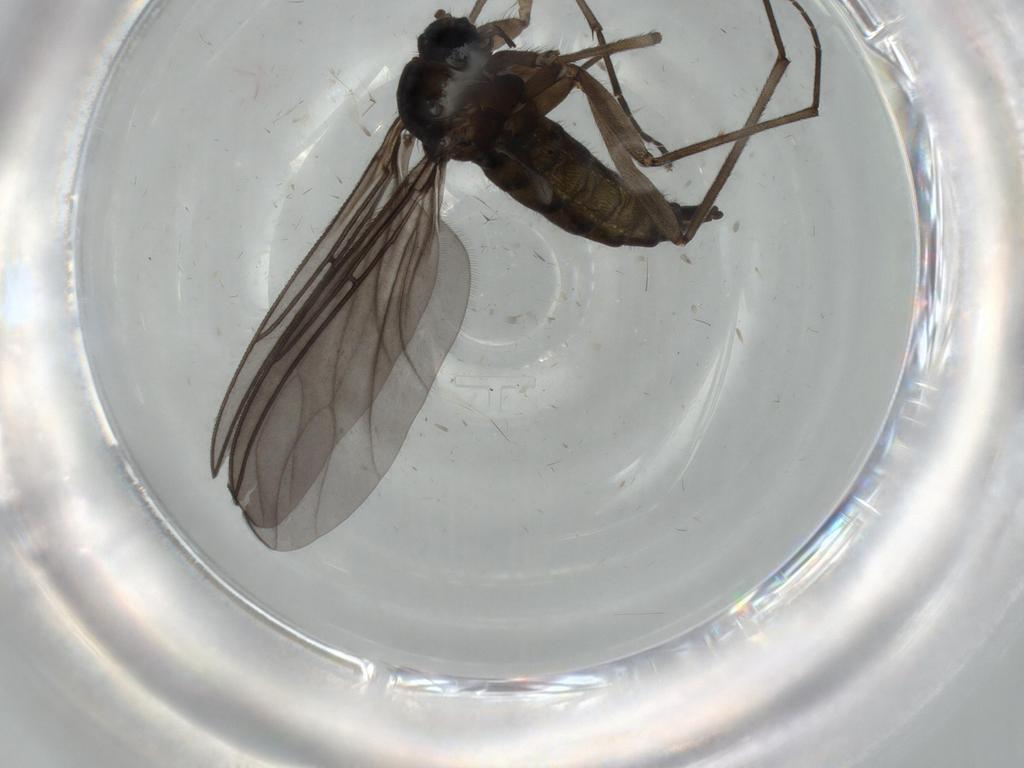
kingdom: Animalia
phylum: Arthropoda
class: Insecta
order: Diptera
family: Sciaridae
